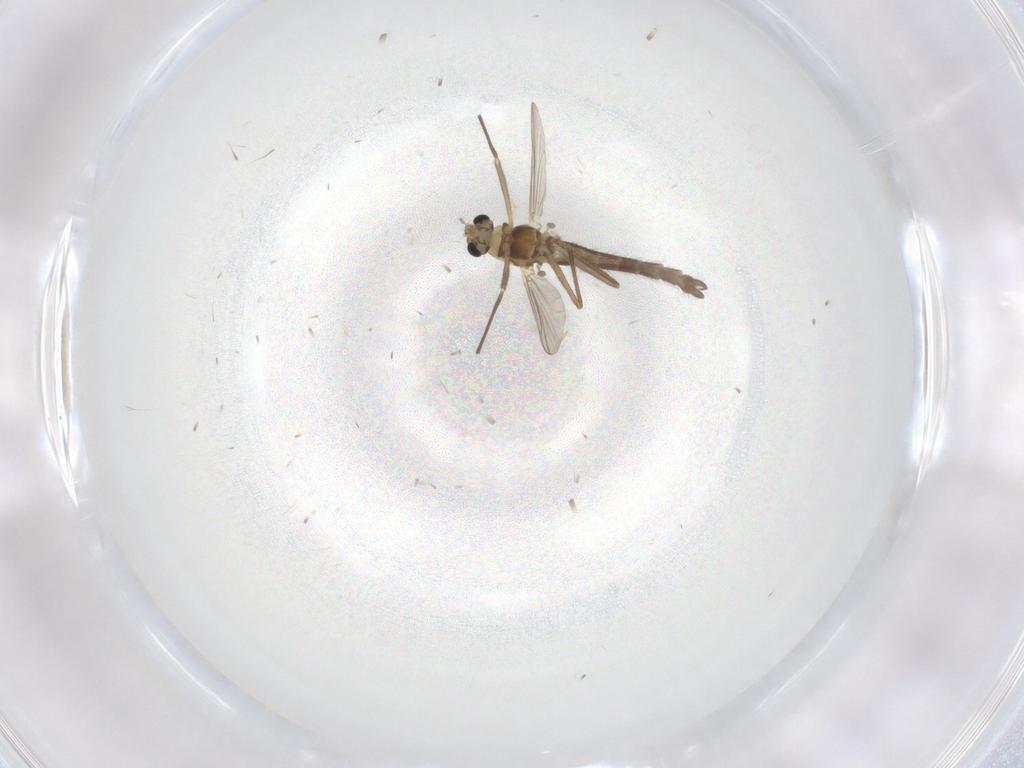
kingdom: Animalia
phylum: Arthropoda
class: Insecta
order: Diptera
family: Chironomidae
